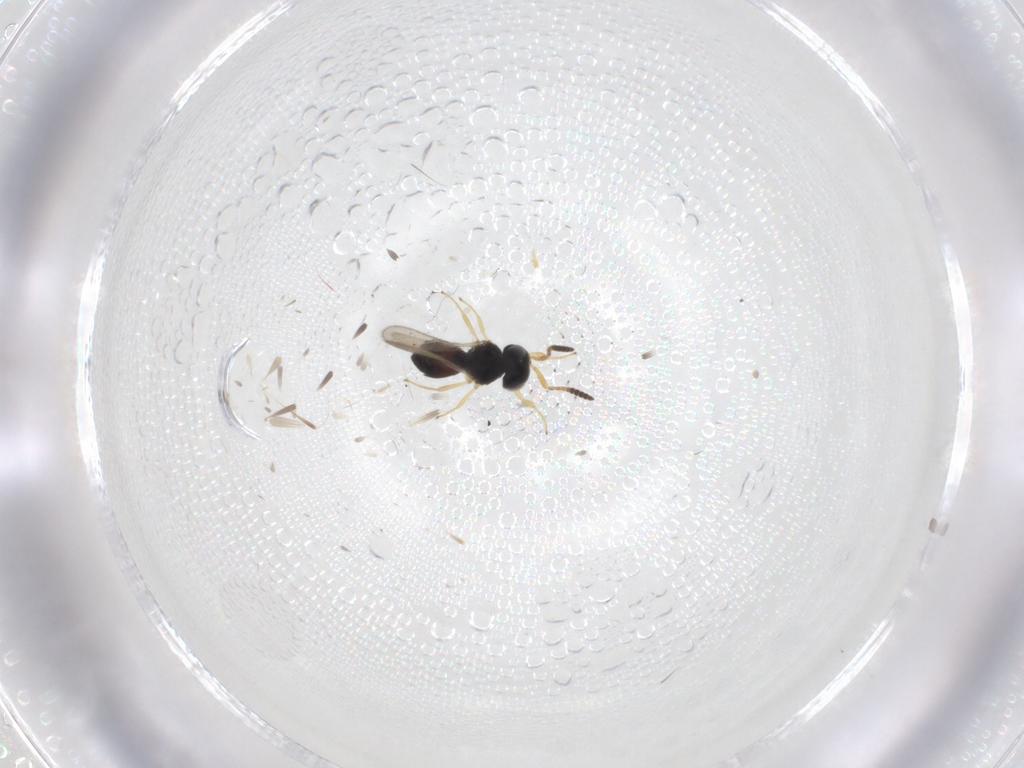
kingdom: Animalia
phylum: Arthropoda
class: Insecta
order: Hymenoptera
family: Scelionidae
